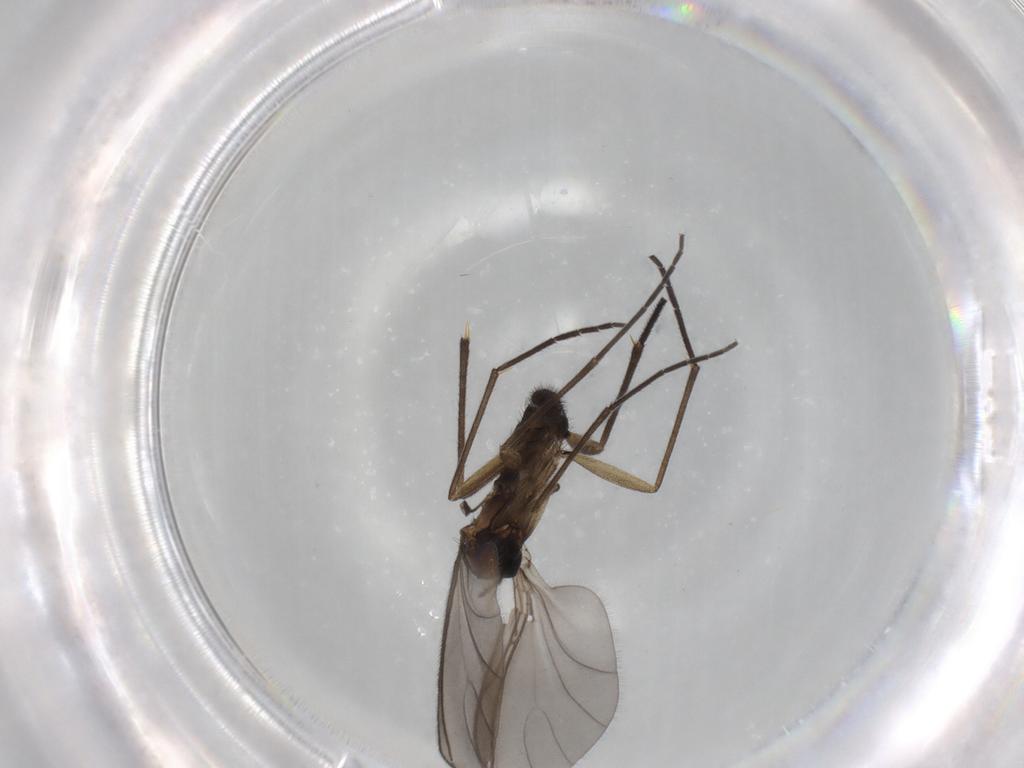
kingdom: Animalia
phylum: Arthropoda
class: Insecta
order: Diptera
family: Sciaridae
